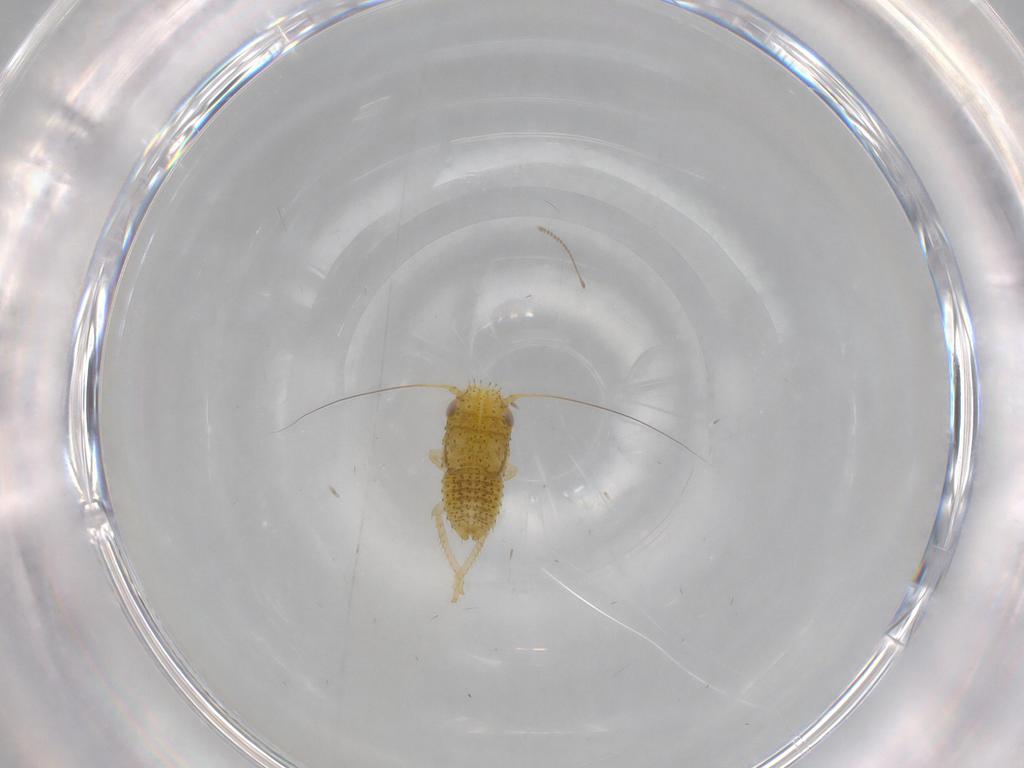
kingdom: Animalia
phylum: Arthropoda
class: Insecta
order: Hemiptera
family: Cicadellidae
